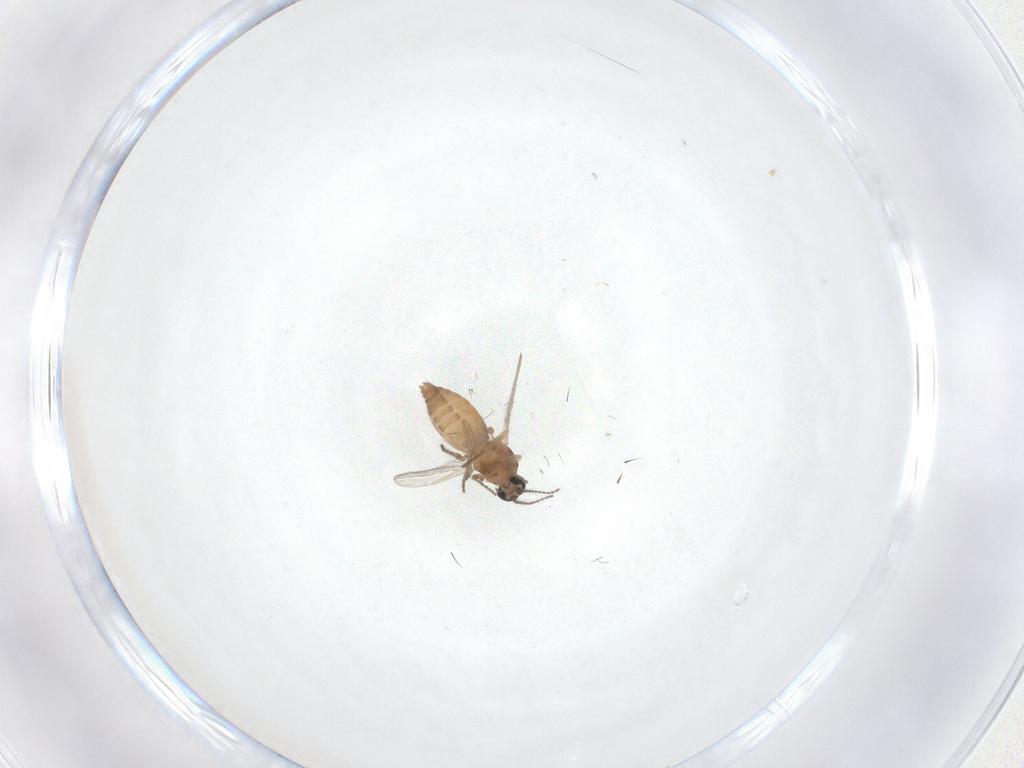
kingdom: Animalia
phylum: Arthropoda
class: Insecta
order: Diptera
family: Ceratopogonidae
